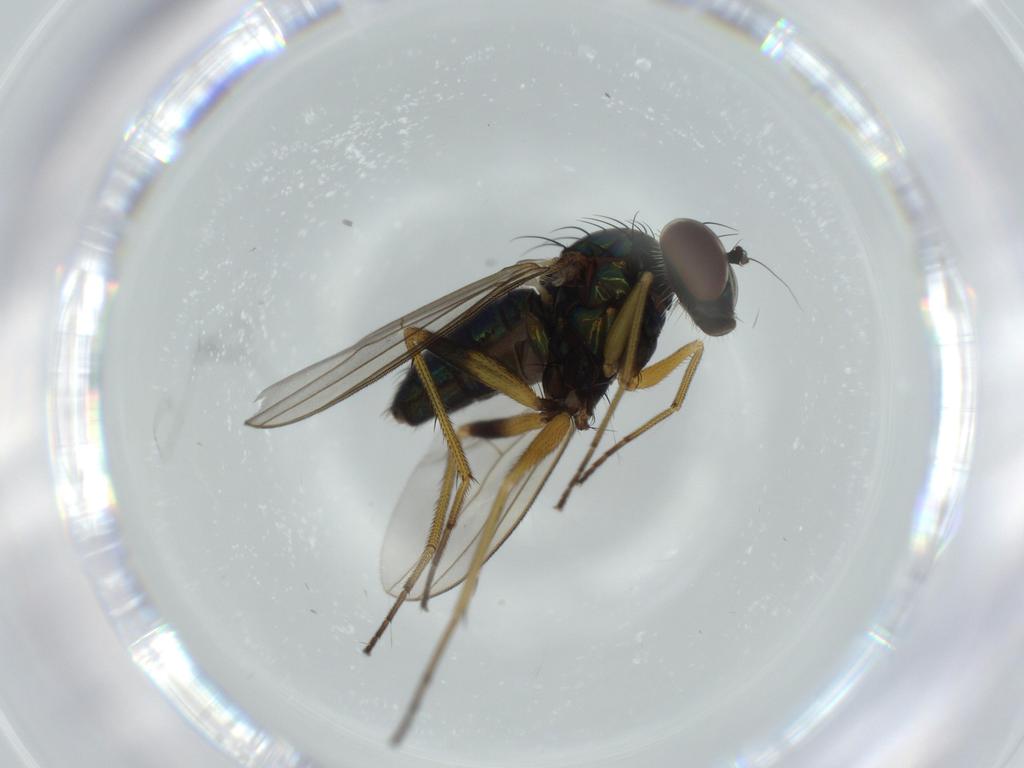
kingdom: Animalia
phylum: Arthropoda
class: Insecta
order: Diptera
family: Dolichopodidae
